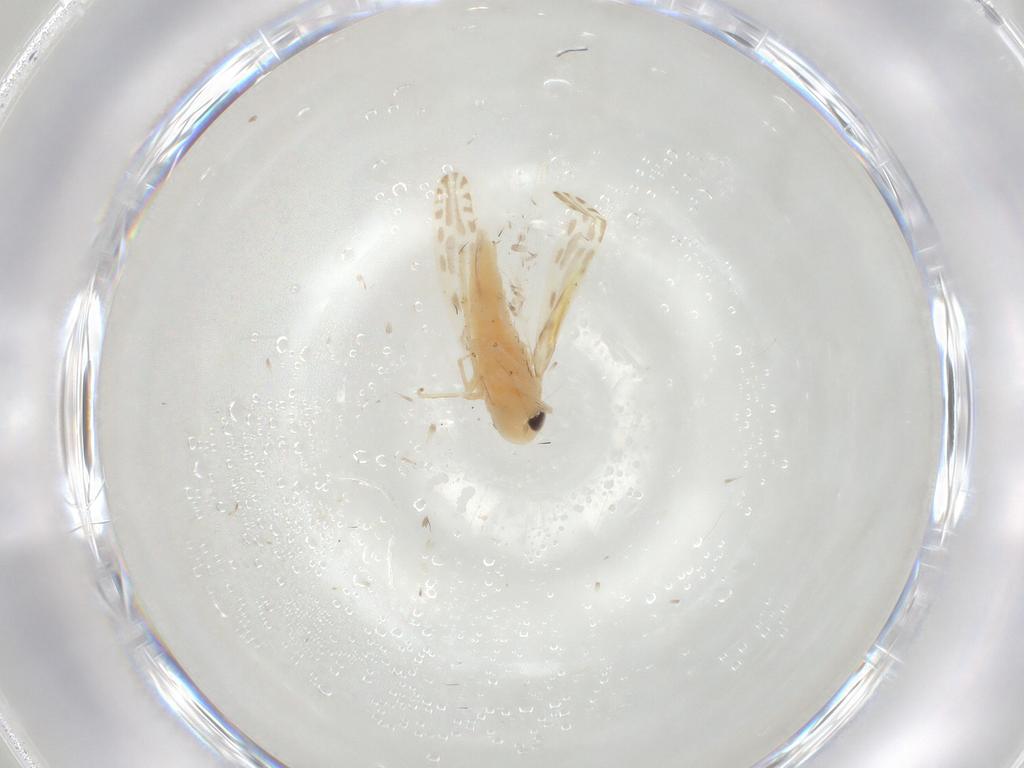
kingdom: Animalia
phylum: Arthropoda
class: Insecta
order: Hemiptera
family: Cicadellidae
